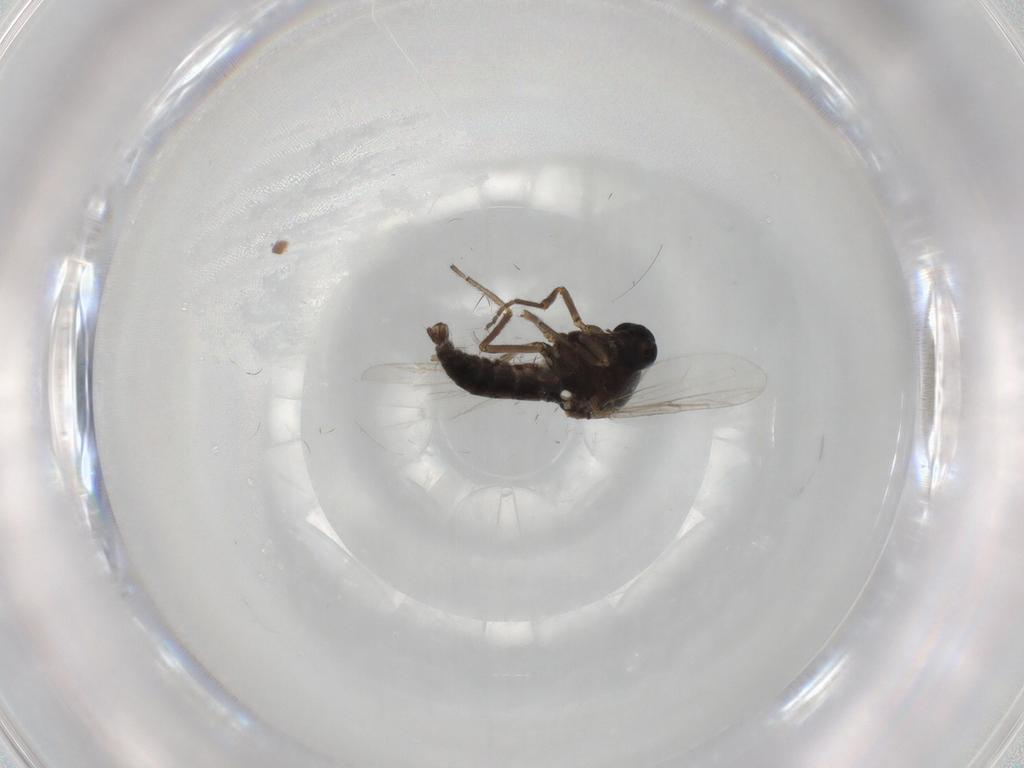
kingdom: Animalia
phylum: Arthropoda
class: Insecta
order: Diptera
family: Ceratopogonidae
